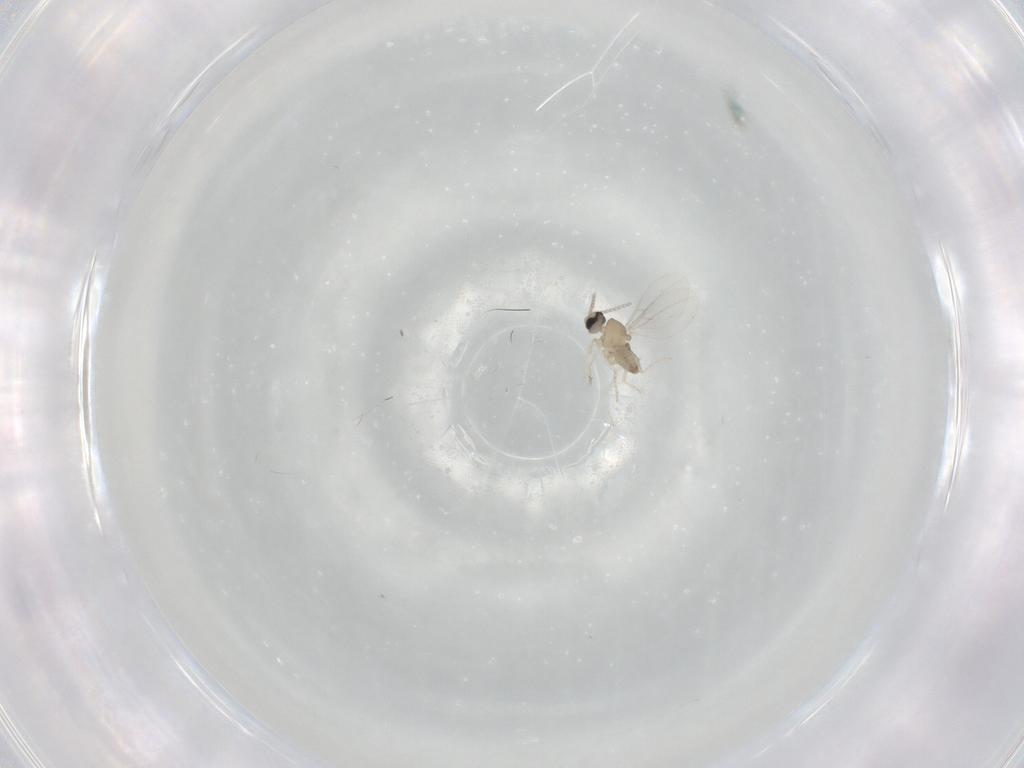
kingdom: Animalia
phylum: Arthropoda
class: Insecta
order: Diptera
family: Cecidomyiidae
